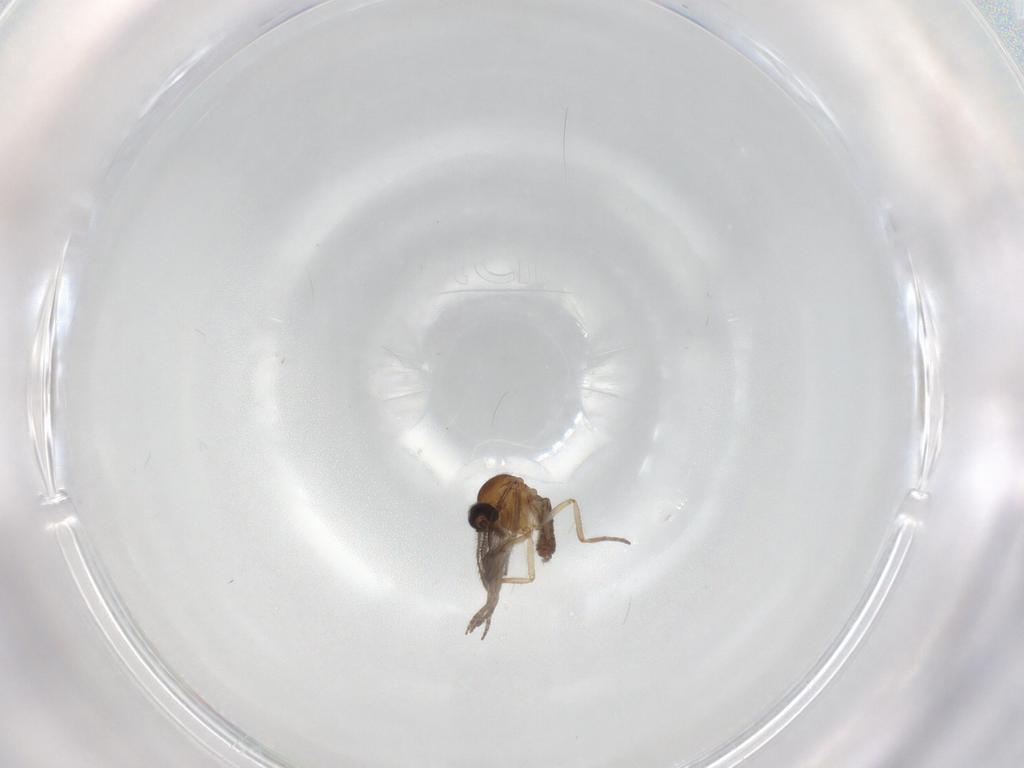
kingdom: Animalia
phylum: Arthropoda
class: Insecta
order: Diptera
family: Ceratopogonidae
